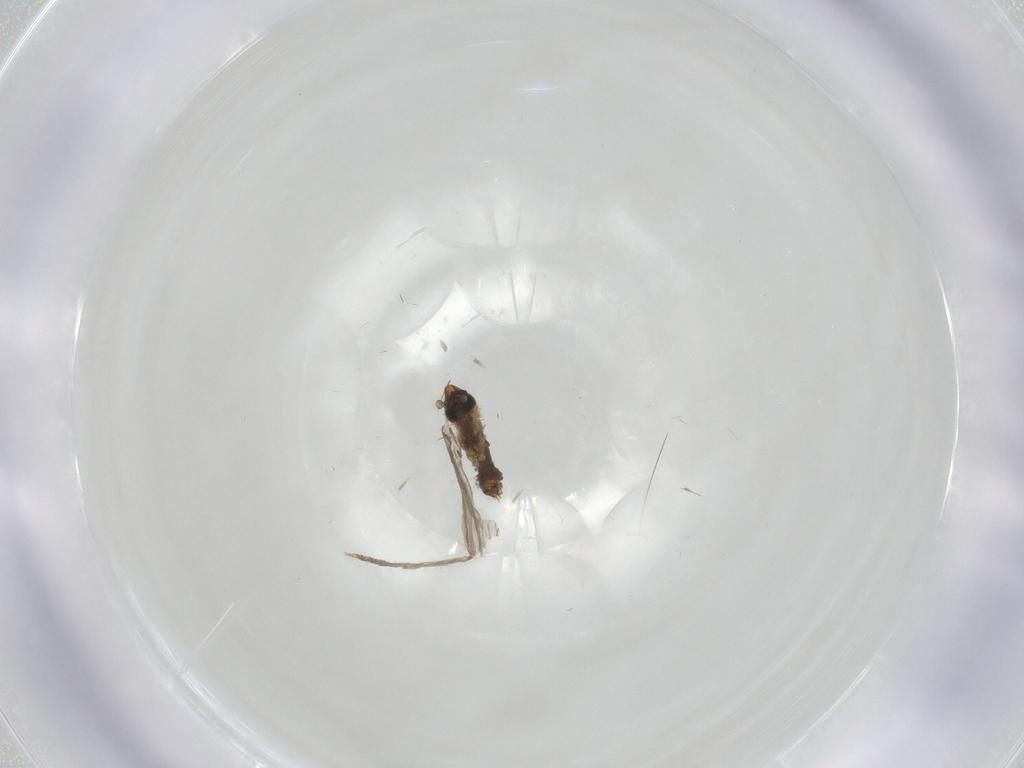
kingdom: Animalia
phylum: Arthropoda
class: Insecta
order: Diptera
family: Psychodidae
